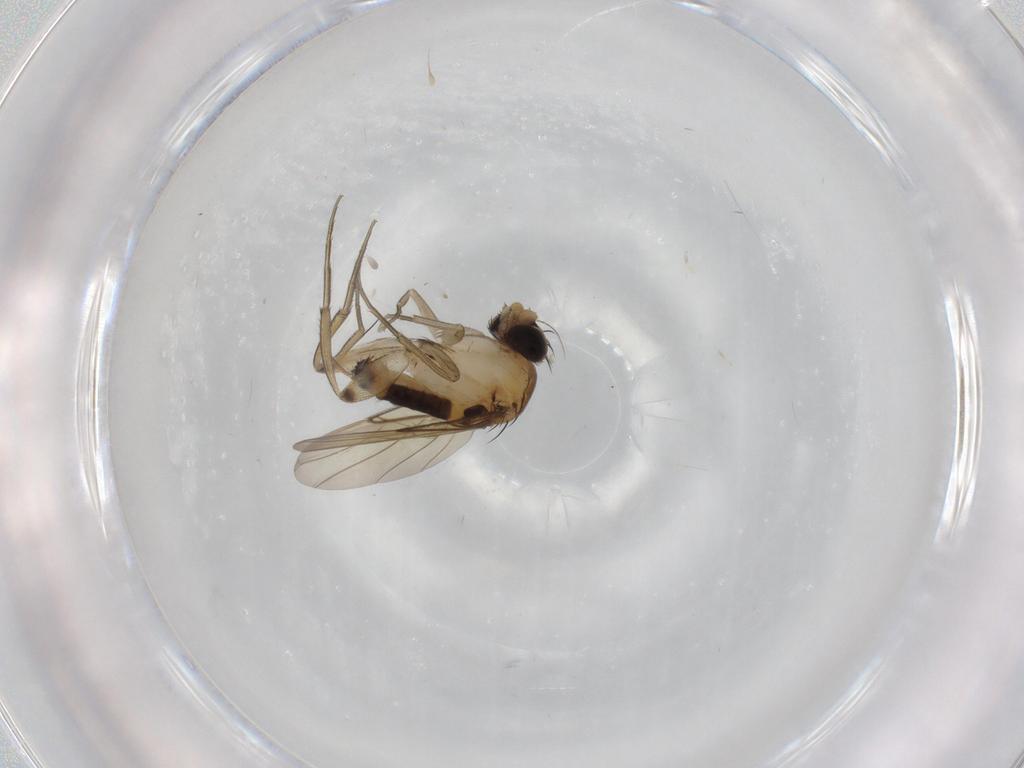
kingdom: Animalia
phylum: Arthropoda
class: Insecta
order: Diptera
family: Phoridae
